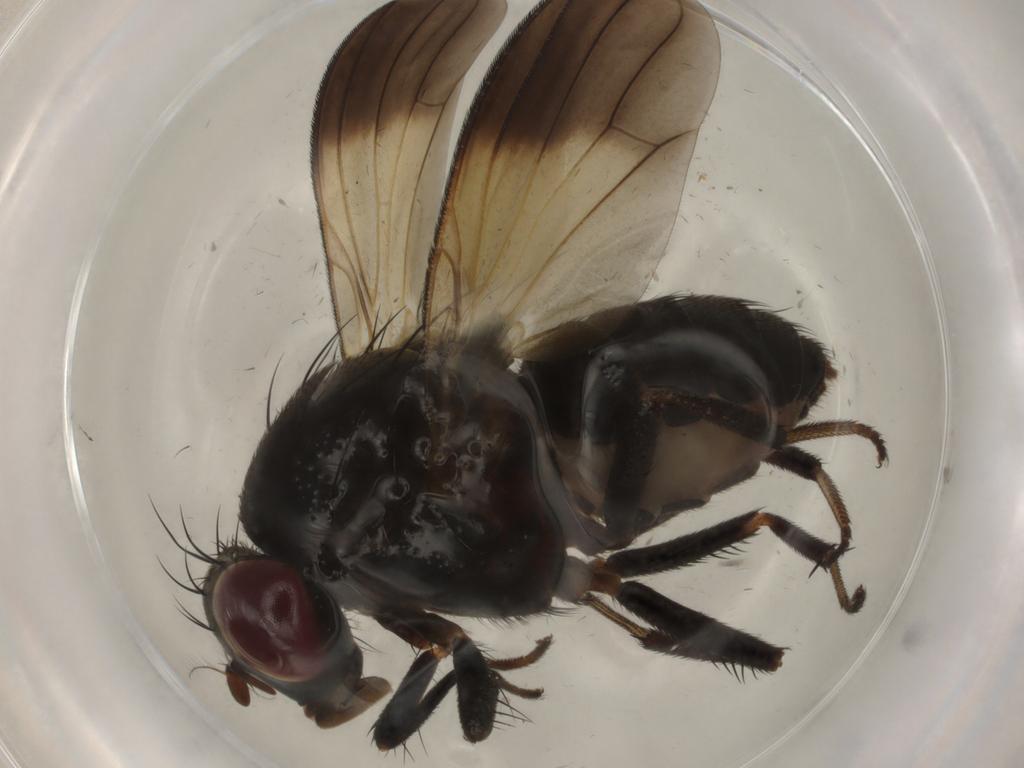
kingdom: Animalia
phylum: Arthropoda
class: Insecta
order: Diptera
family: Lauxaniidae
